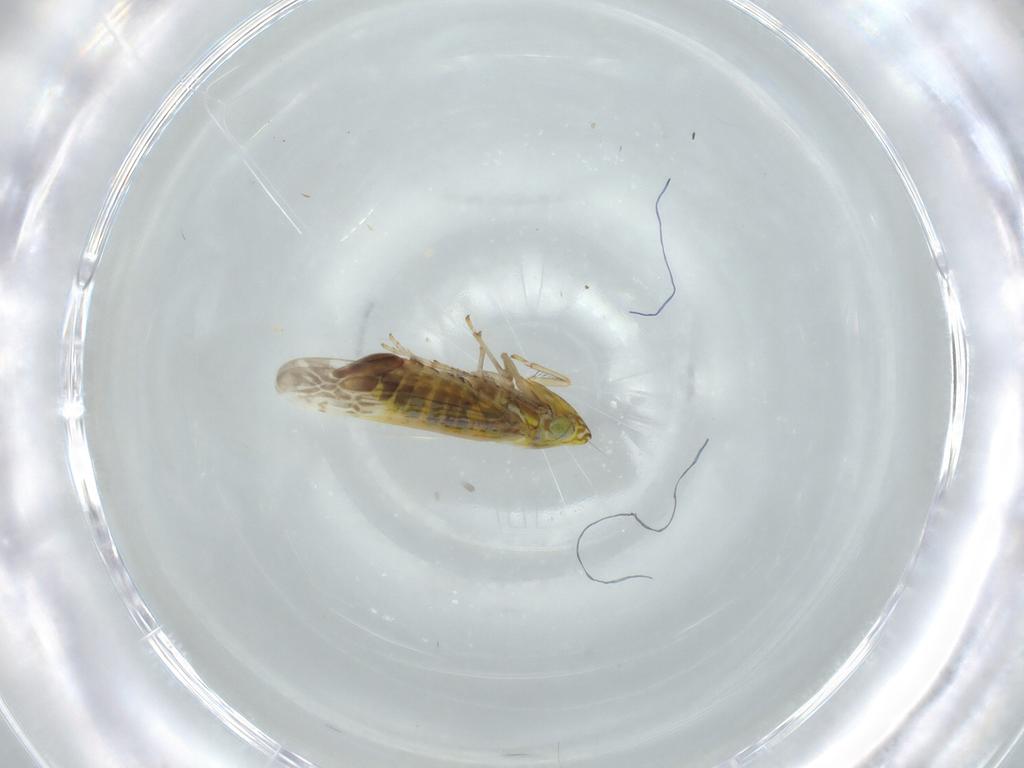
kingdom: Animalia
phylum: Arthropoda
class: Insecta
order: Hemiptera
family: Cicadellidae
